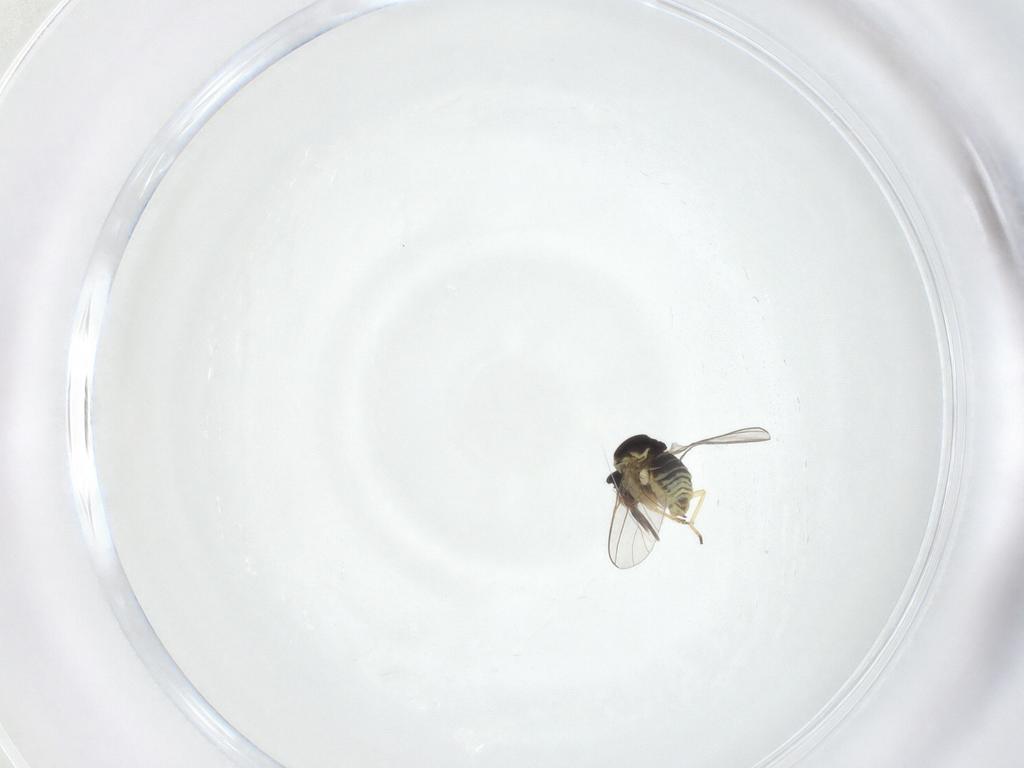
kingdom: Animalia
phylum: Arthropoda
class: Insecta
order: Diptera
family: Mythicomyiidae
